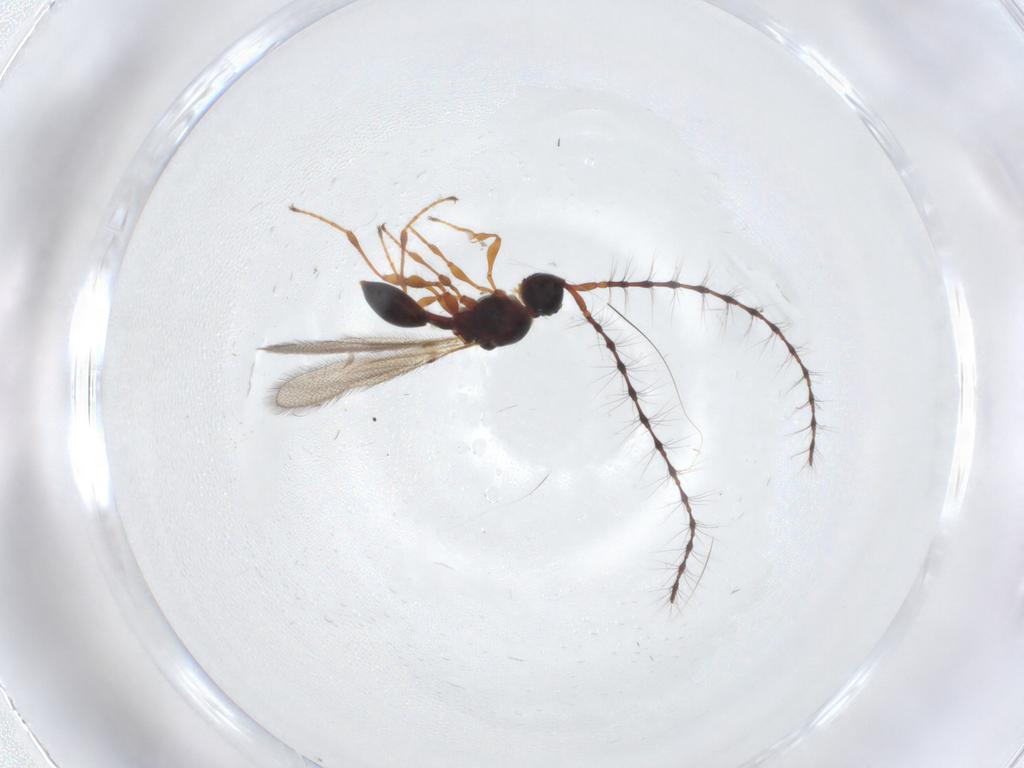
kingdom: Animalia
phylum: Arthropoda
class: Insecta
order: Hymenoptera
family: Diapriidae
